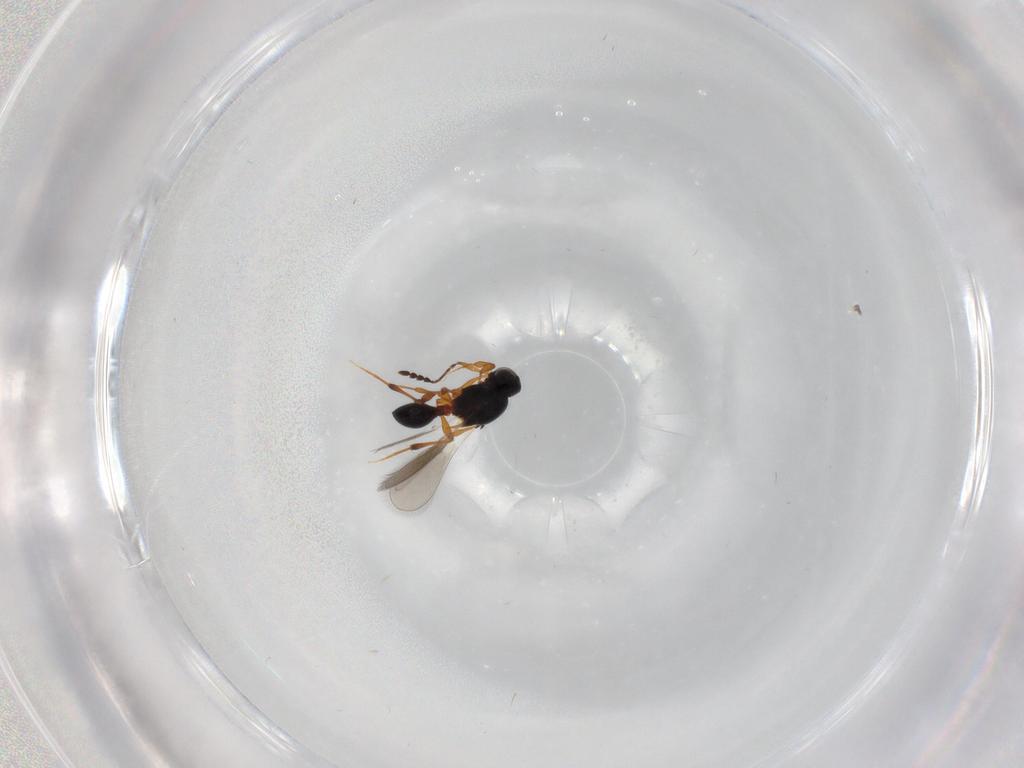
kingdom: Animalia
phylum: Arthropoda
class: Insecta
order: Hymenoptera
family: Platygastridae
